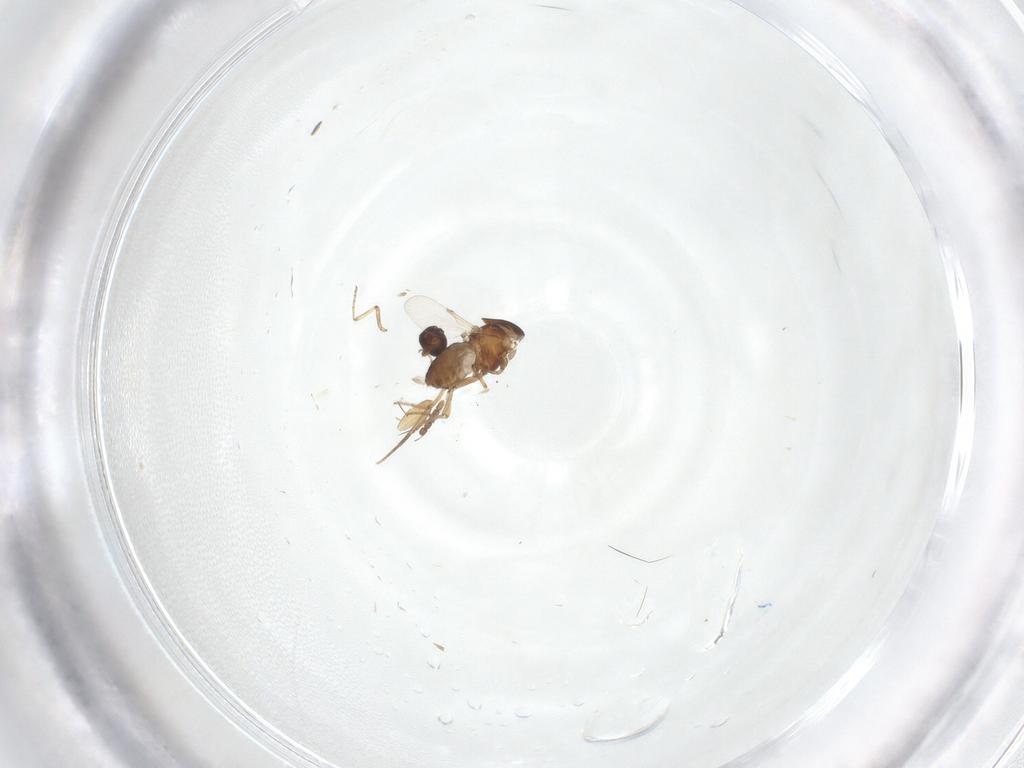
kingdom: Animalia
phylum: Arthropoda
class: Insecta
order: Diptera
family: Ceratopogonidae
